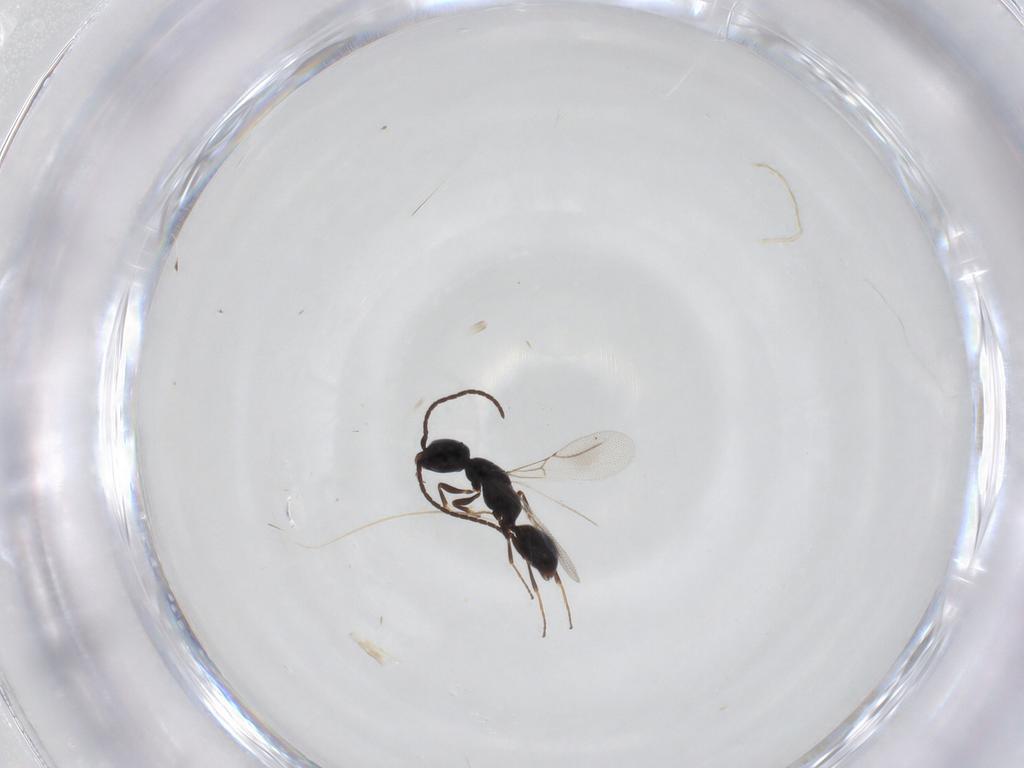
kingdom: Animalia
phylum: Arthropoda
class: Insecta
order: Hymenoptera
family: Bethylidae
